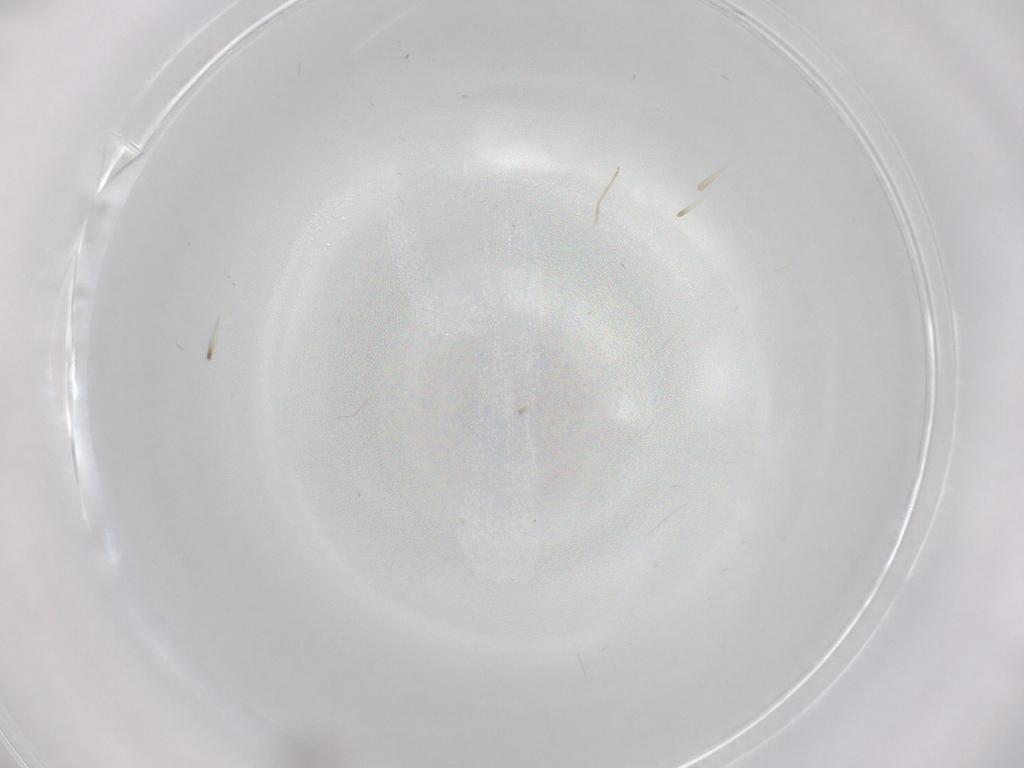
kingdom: Animalia
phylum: Arthropoda
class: Insecta
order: Diptera
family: Cecidomyiidae
